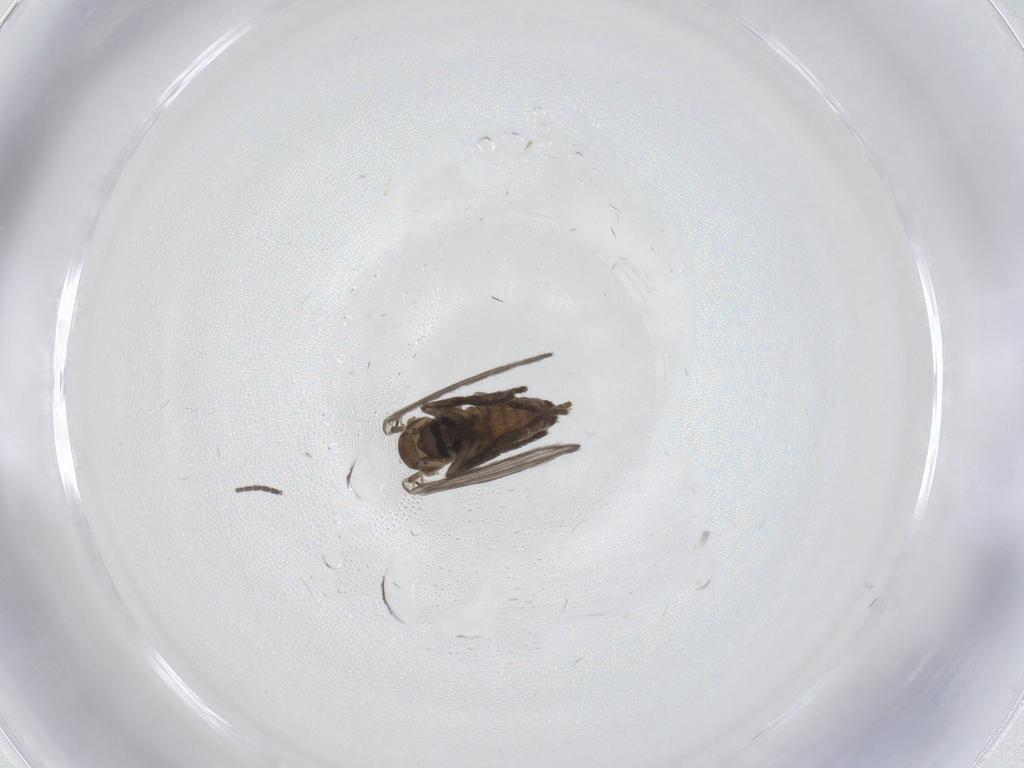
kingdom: Animalia
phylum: Arthropoda
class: Insecta
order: Diptera
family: Psychodidae
